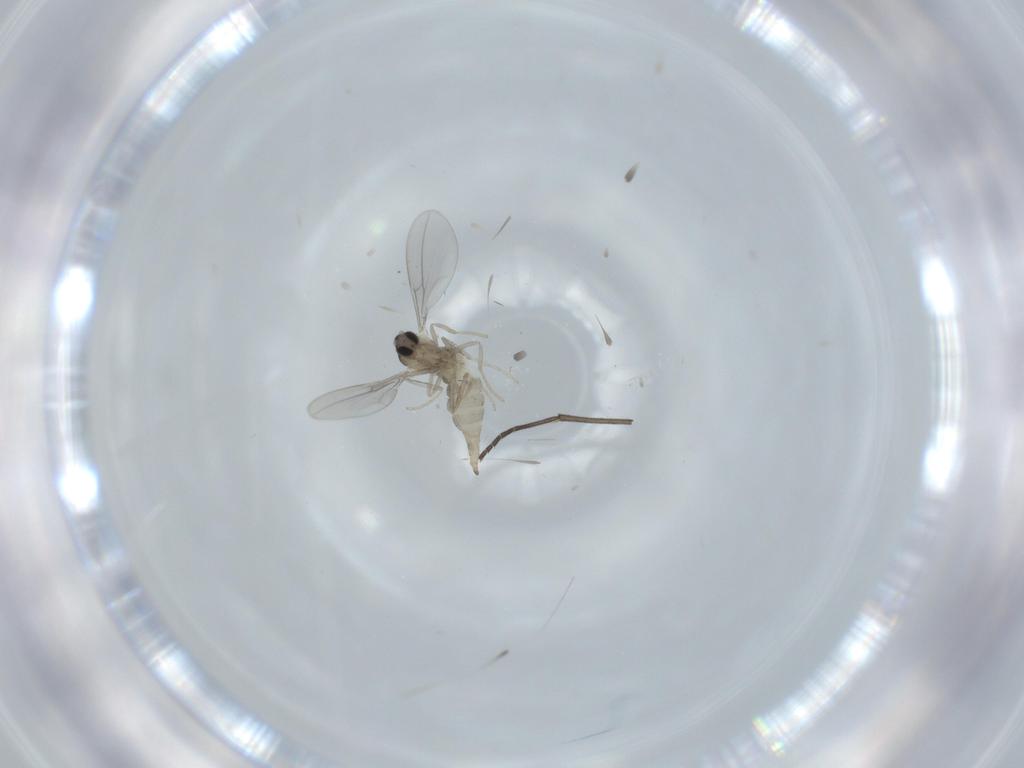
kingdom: Animalia
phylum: Arthropoda
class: Insecta
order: Diptera
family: Cecidomyiidae
